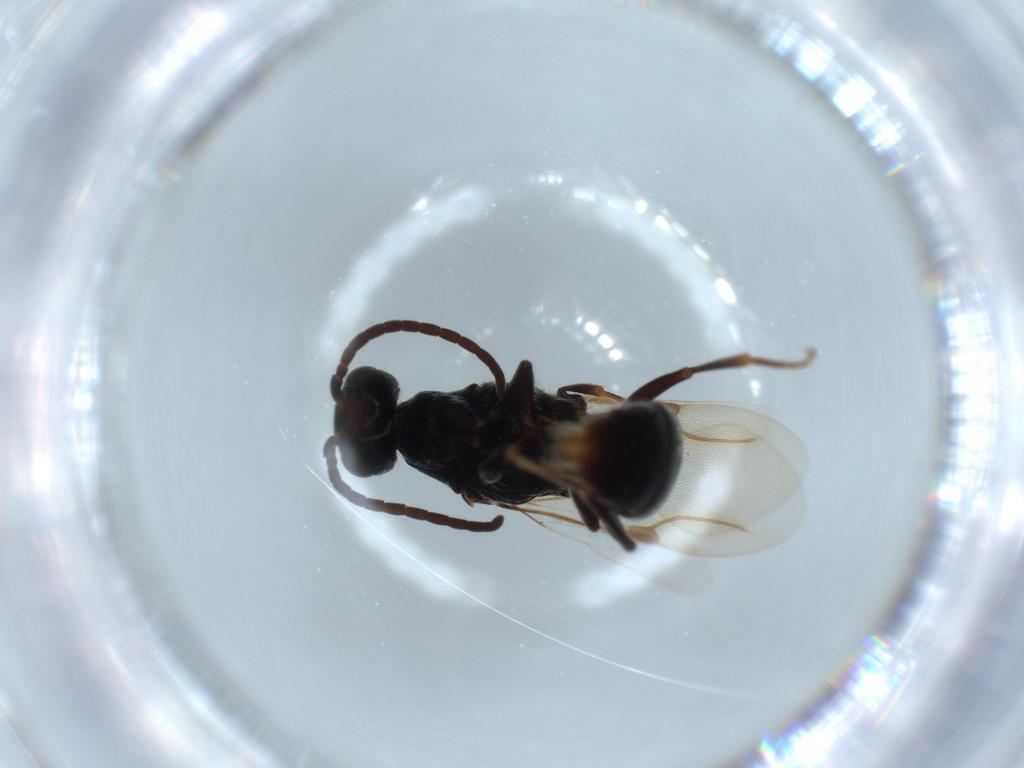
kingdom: Animalia
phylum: Arthropoda
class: Insecta
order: Hymenoptera
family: Bethylidae
